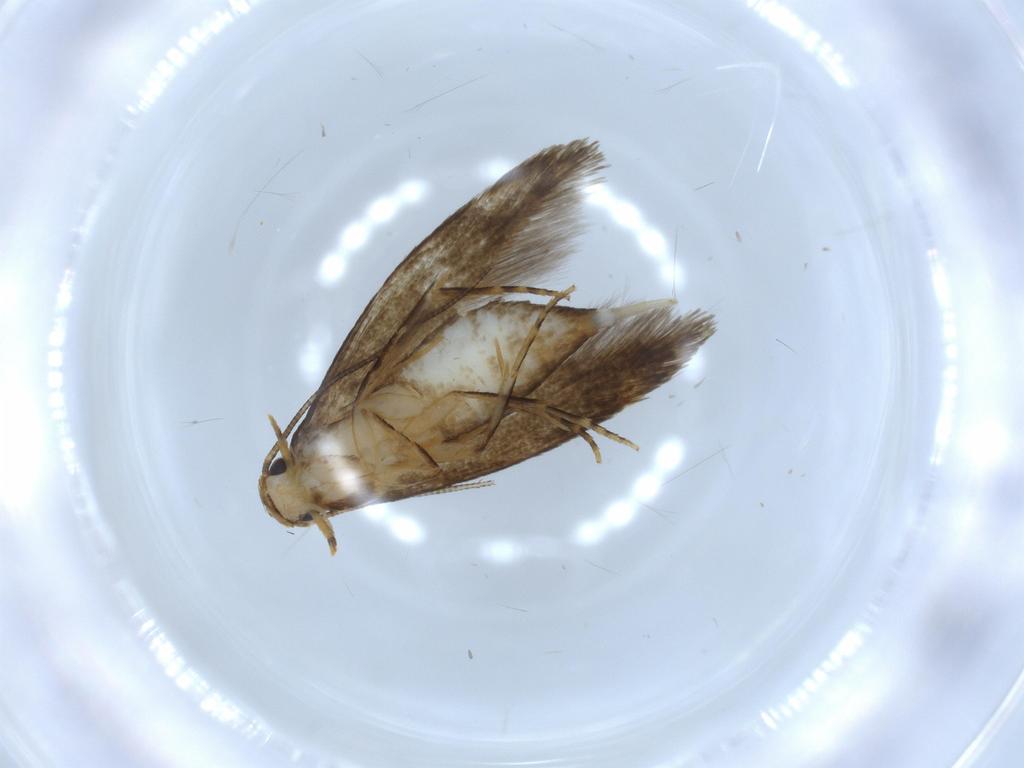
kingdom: Animalia
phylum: Arthropoda
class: Insecta
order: Lepidoptera
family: Tineidae
